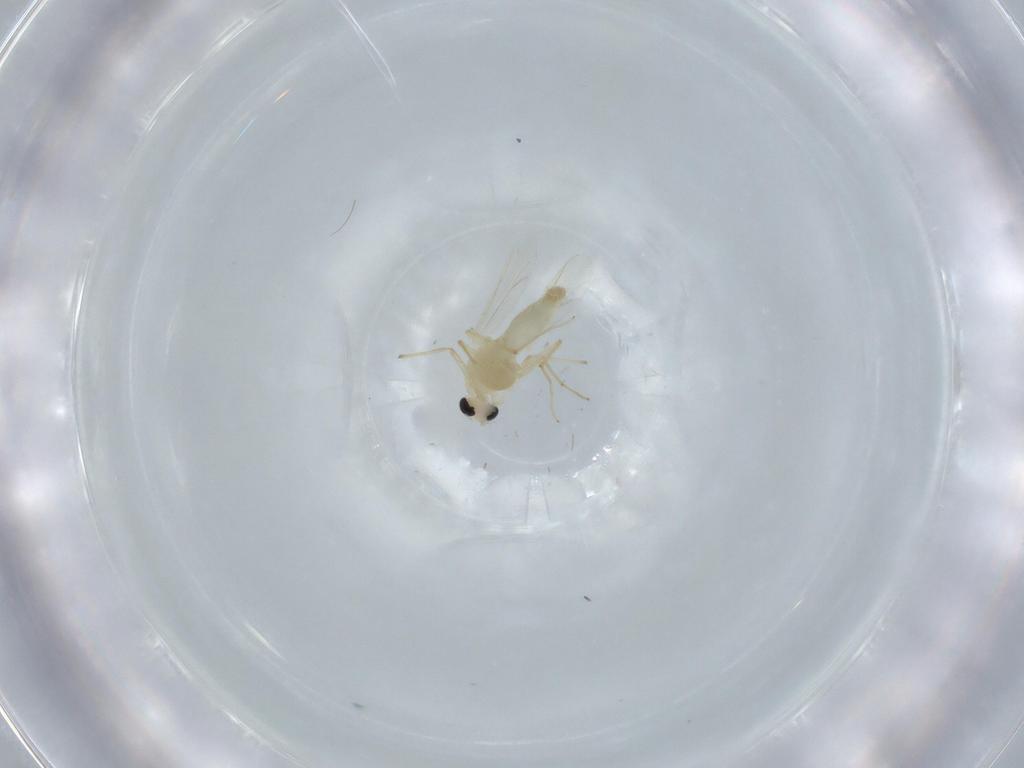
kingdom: Animalia
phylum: Arthropoda
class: Insecta
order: Diptera
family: Chironomidae
